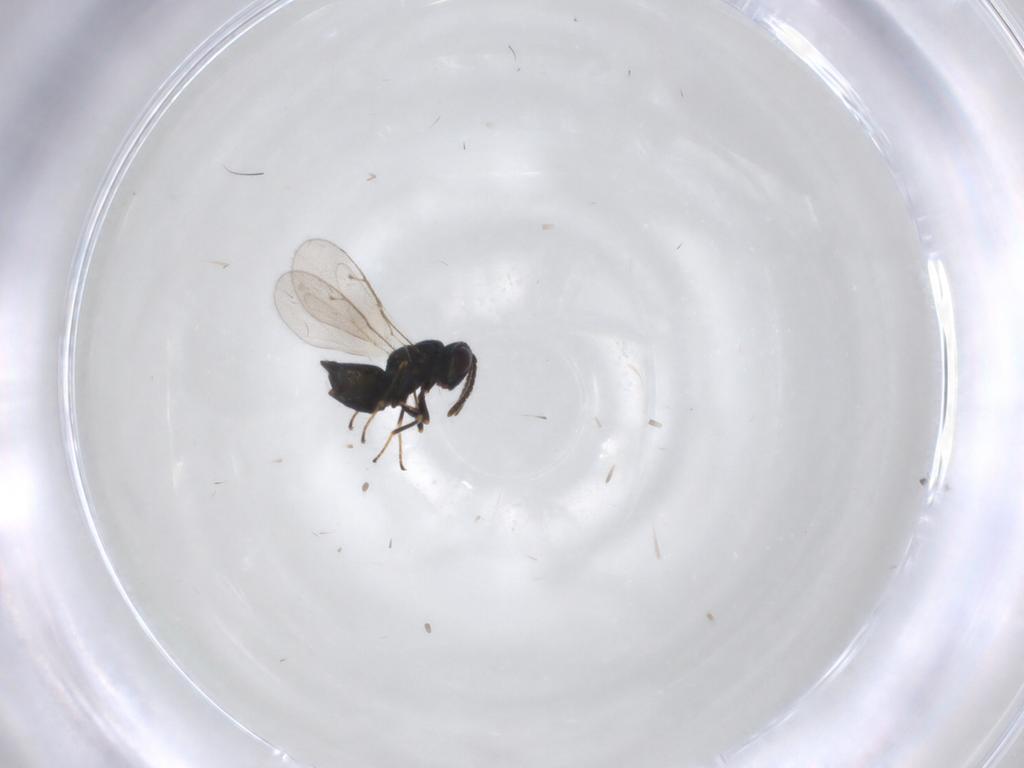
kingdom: Animalia
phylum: Arthropoda
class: Insecta
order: Hymenoptera
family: Pteromalidae
